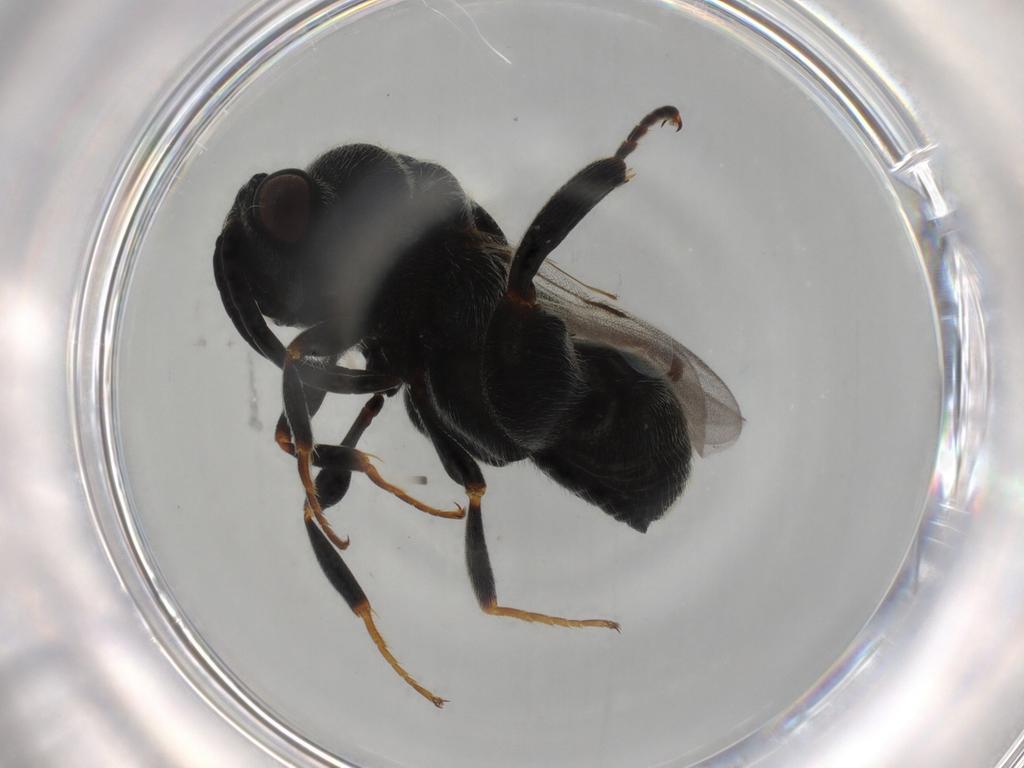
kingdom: Animalia
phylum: Arthropoda
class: Insecta
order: Hymenoptera
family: Chalcididae
